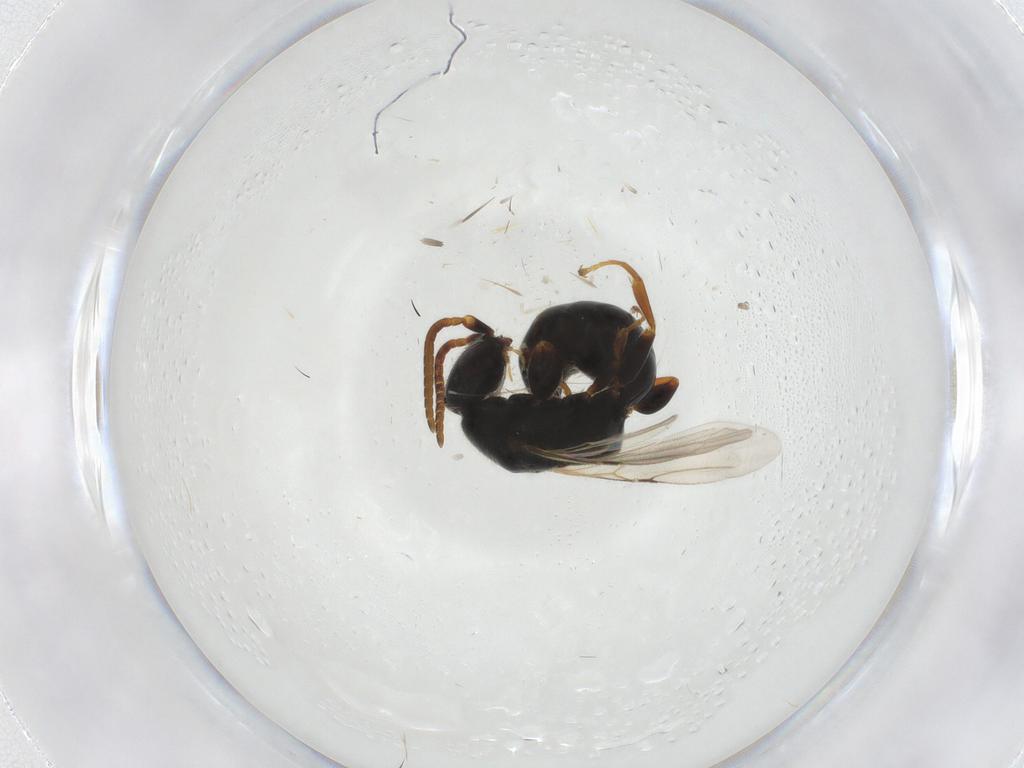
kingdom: Animalia
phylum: Arthropoda
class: Insecta
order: Hymenoptera
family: Bethylidae
